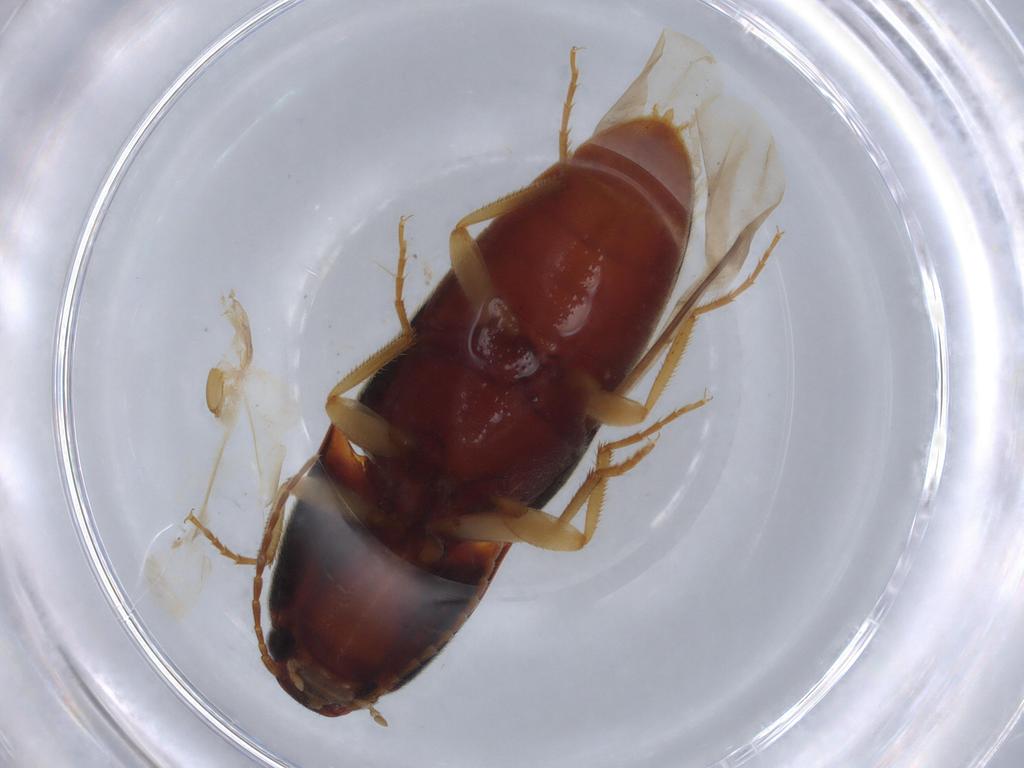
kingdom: Animalia
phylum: Arthropoda
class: Insecta
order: Coleoptera
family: Elateridae
